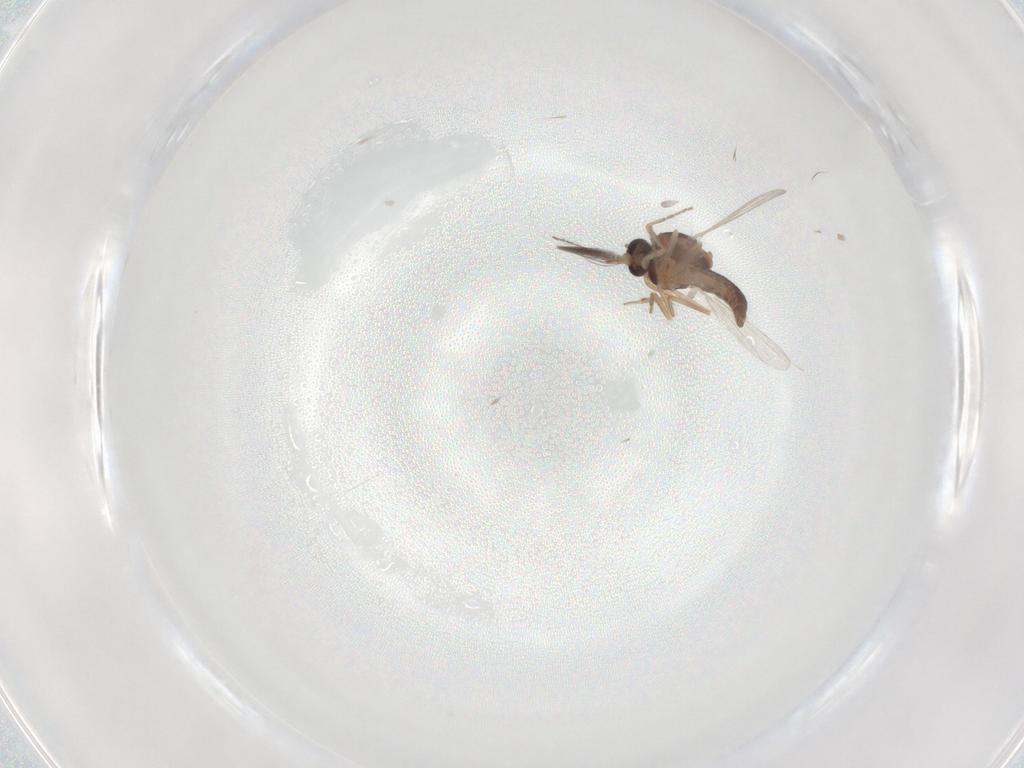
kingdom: Animalia
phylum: Arthropoda
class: Insecta
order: Diptera
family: Ceratopogonidae
